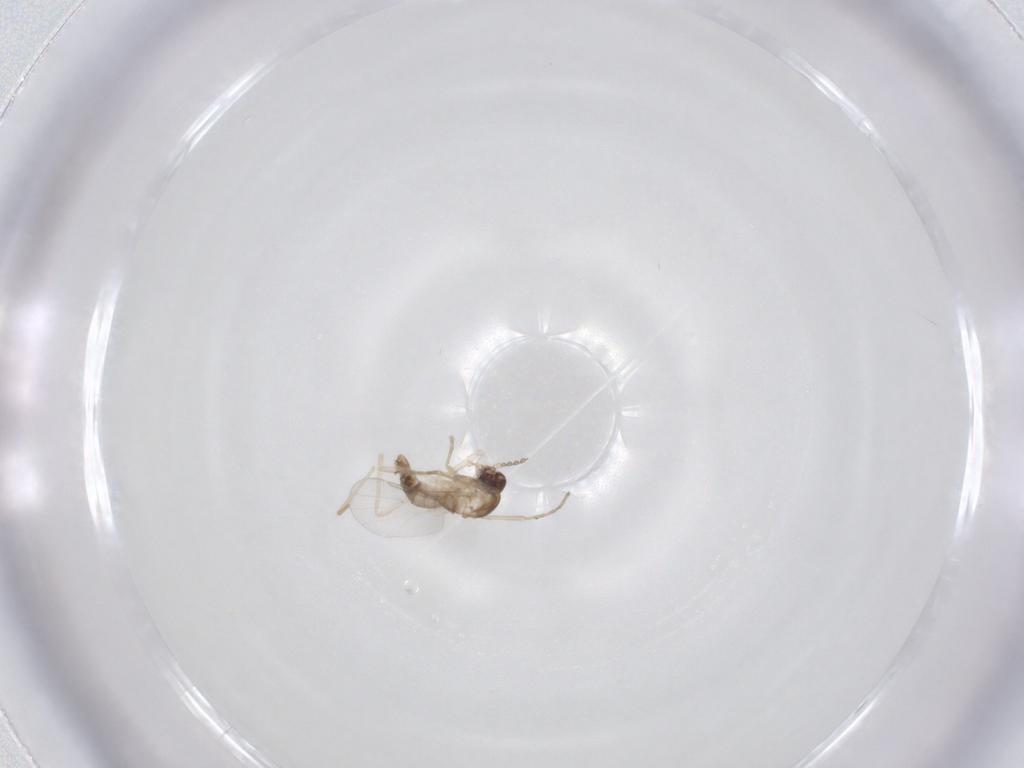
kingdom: Animalia
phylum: Arthropoda
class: Insecta
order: Diptera
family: Cecidomyiidae
